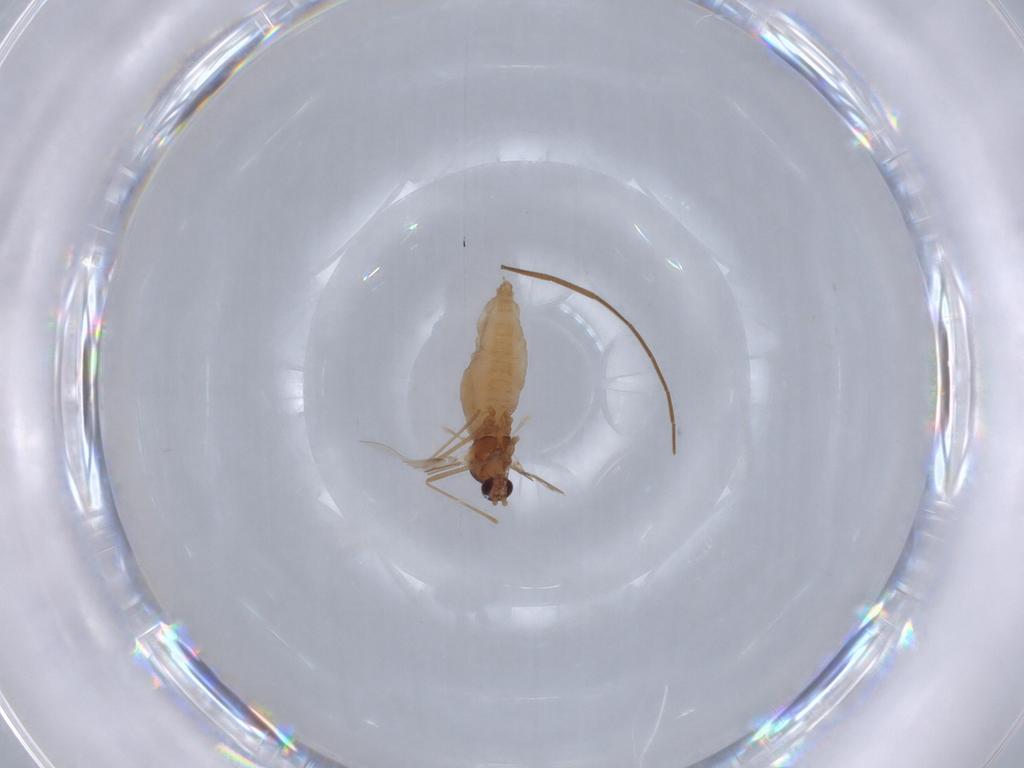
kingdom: Animalia
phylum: Arthropoda
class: Insecta
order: Diptera
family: Cecidomyiidae
